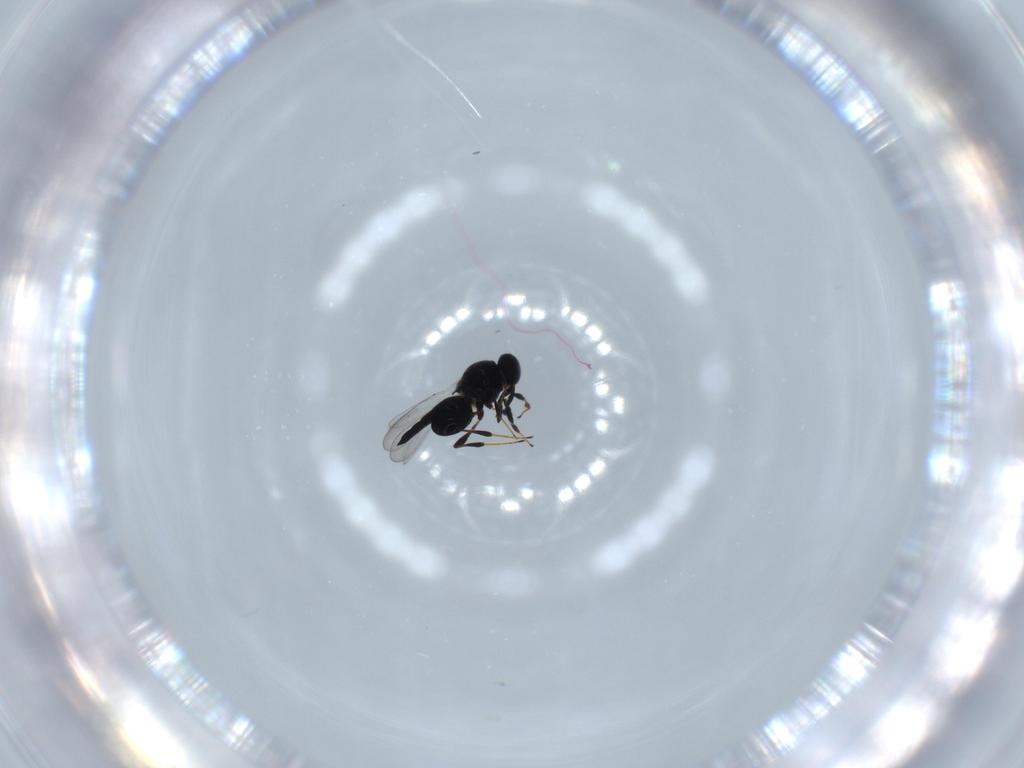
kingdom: Animalia
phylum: Arthropoda
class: Insecta
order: Hymenoptera
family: Platygastridae
